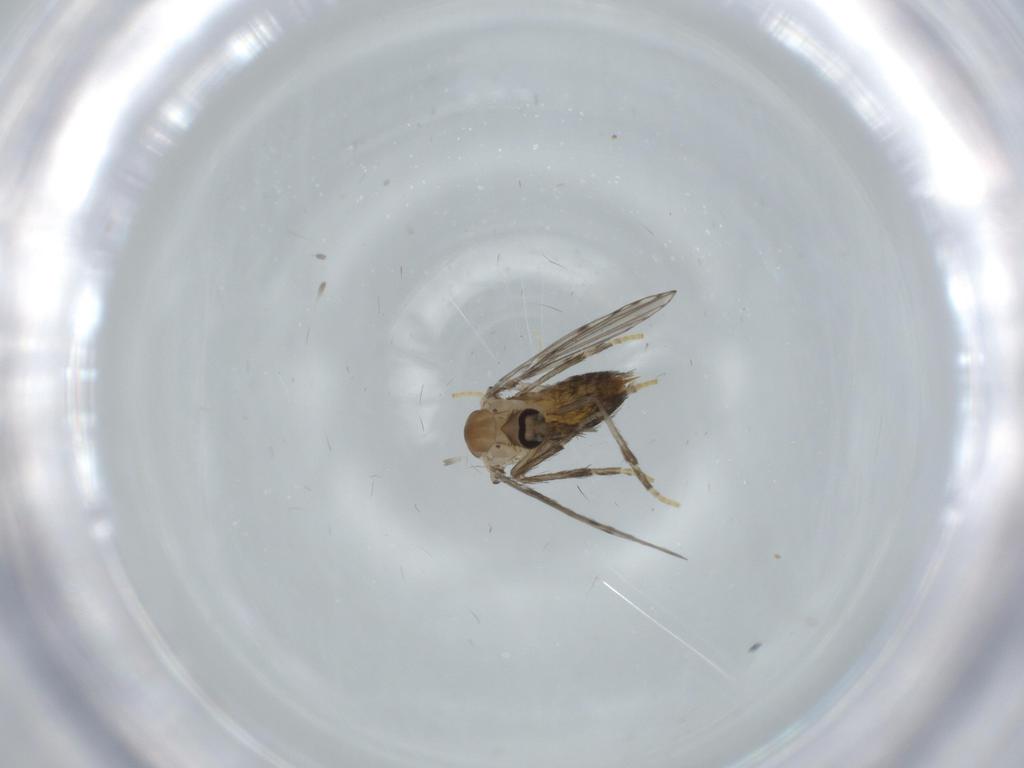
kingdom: Animalia
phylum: Arthropoda
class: Insecta
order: Diptera
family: Psychodidae
